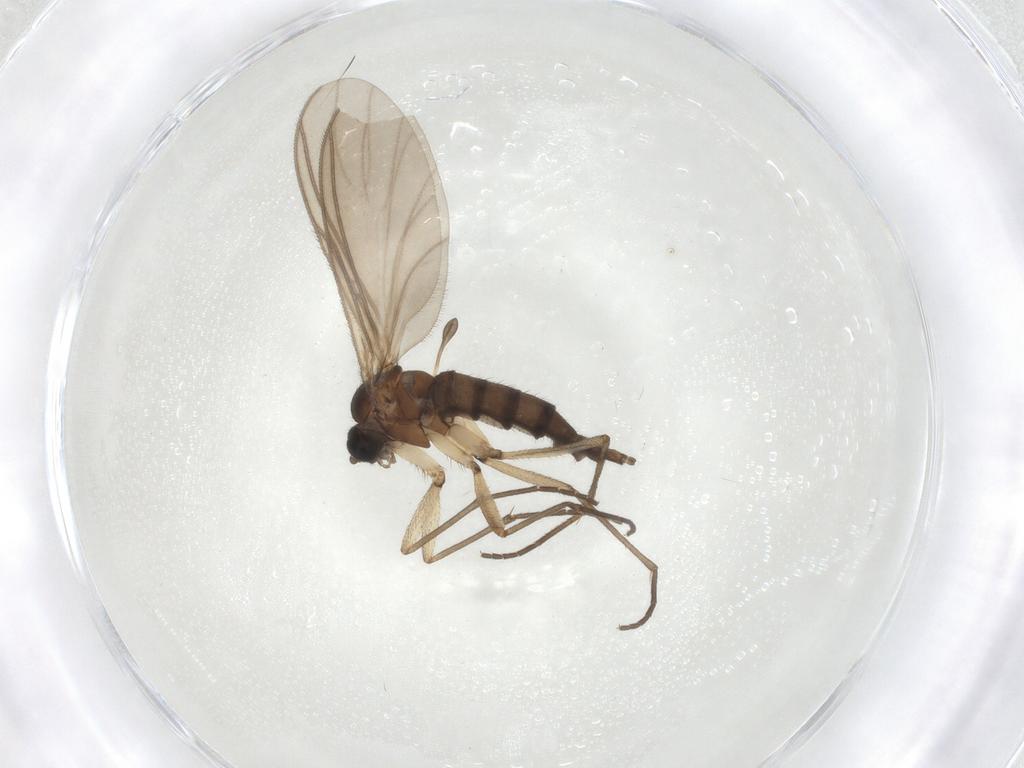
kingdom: Animalia
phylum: Arthropoda
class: Insecta
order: Diptera
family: Sciaridae
